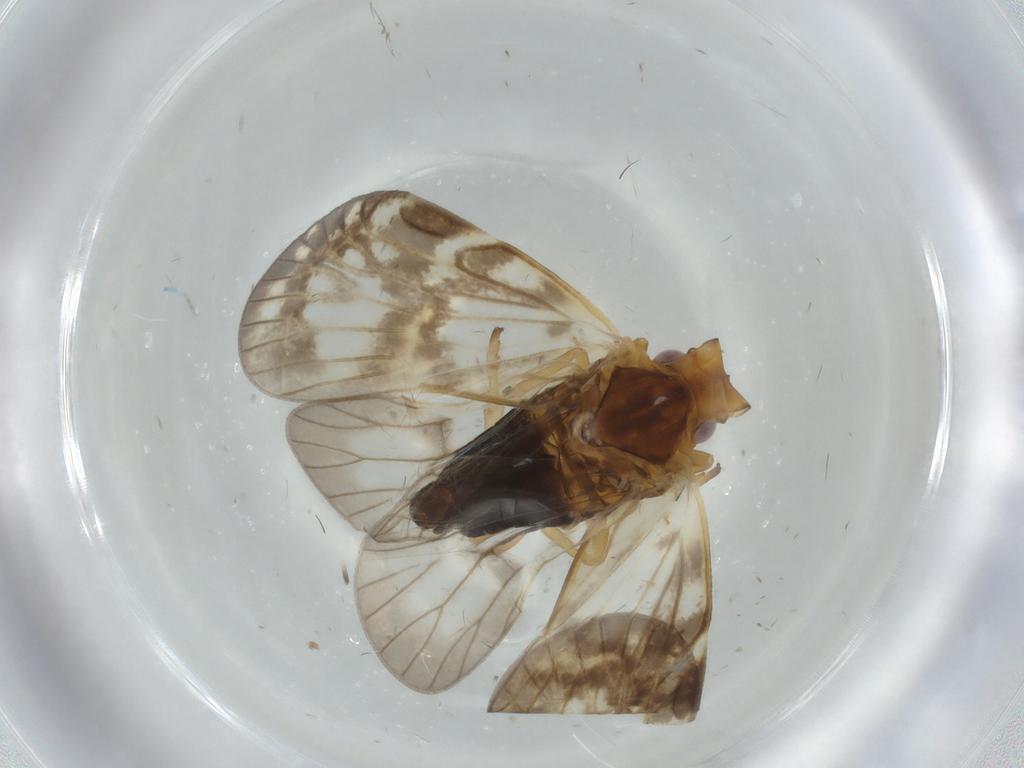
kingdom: Animalia
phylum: Arthropoda
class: Insecta
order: Hemiptera
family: Cixiidae
